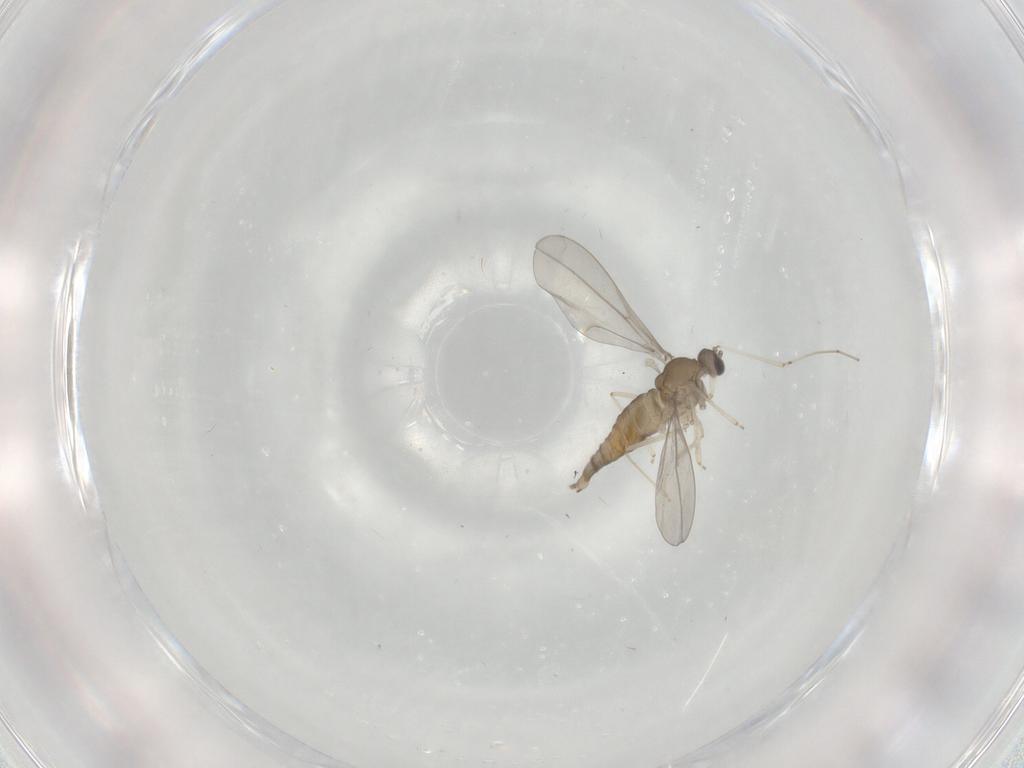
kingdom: Animalia
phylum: Arthropoda
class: Insecta
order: Diptera
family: Cecidomyiidae
